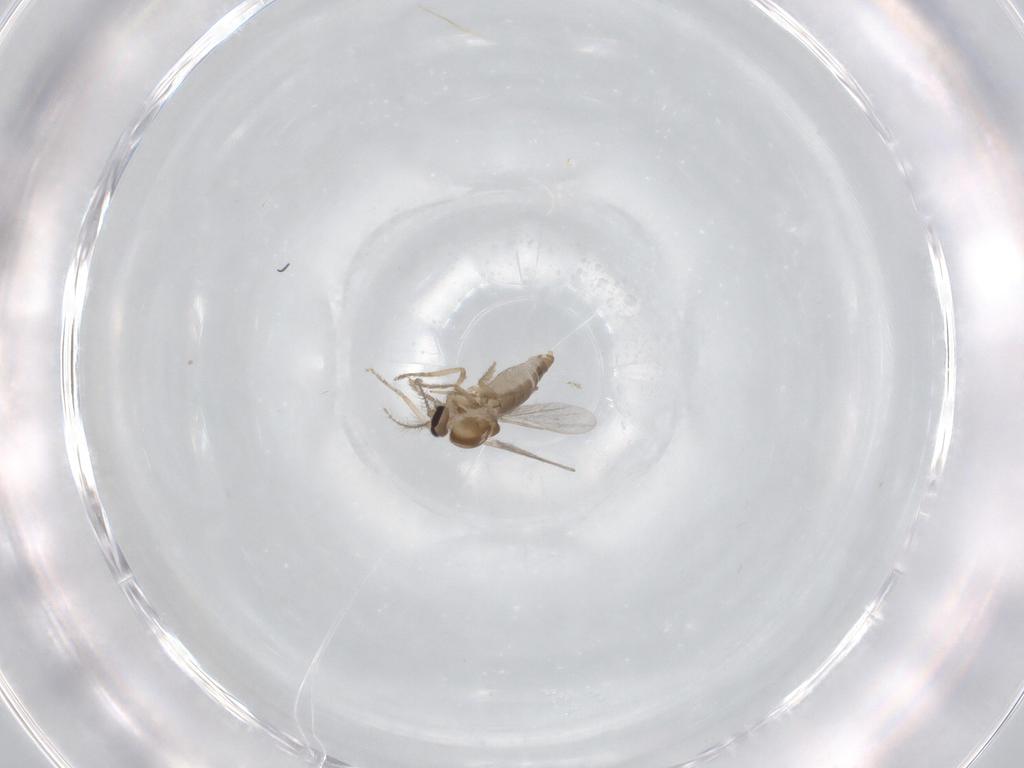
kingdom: Animalia
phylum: Arthropoda
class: Insecta
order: Diptera
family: Ceratopogonidae
